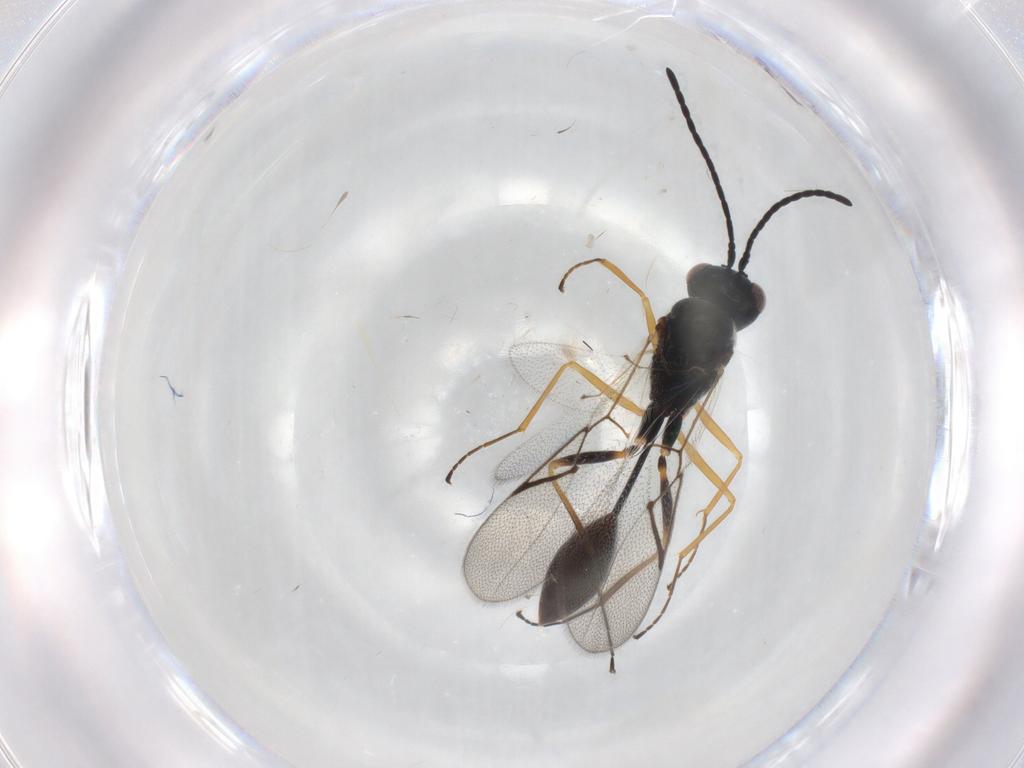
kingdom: Animalia
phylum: Arthropoda
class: Insecta
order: Hymenoptera
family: Figitidae
